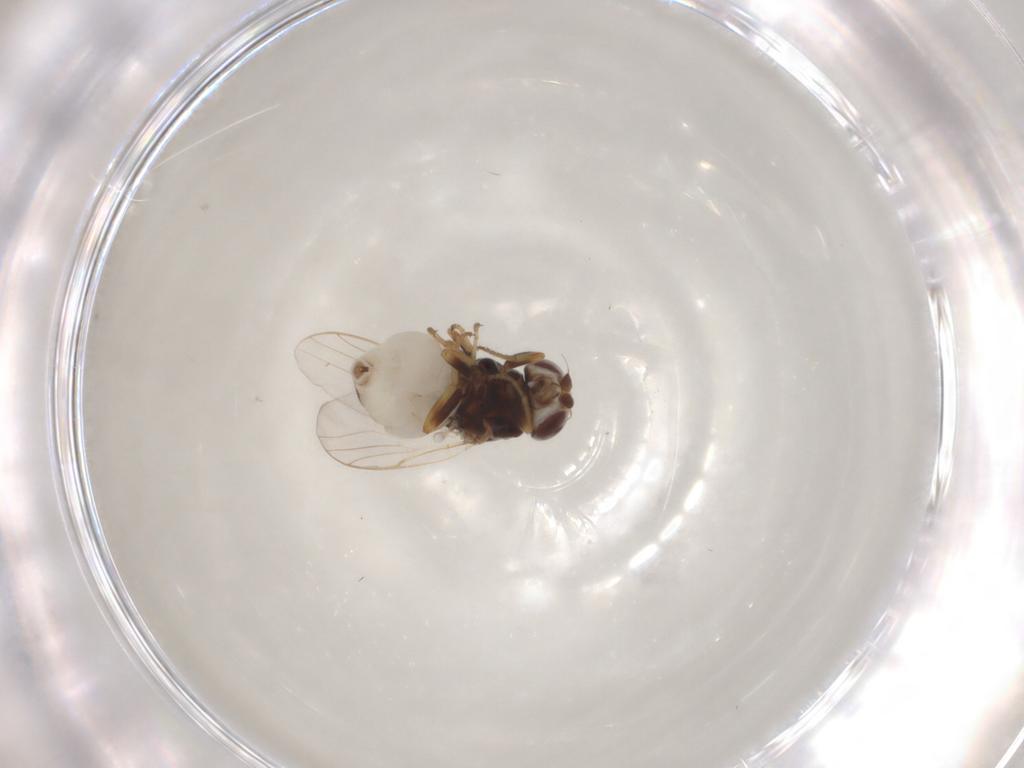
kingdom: Animalia
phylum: Arthropoda
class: Insecta
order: Diptera
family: Chloropidae
